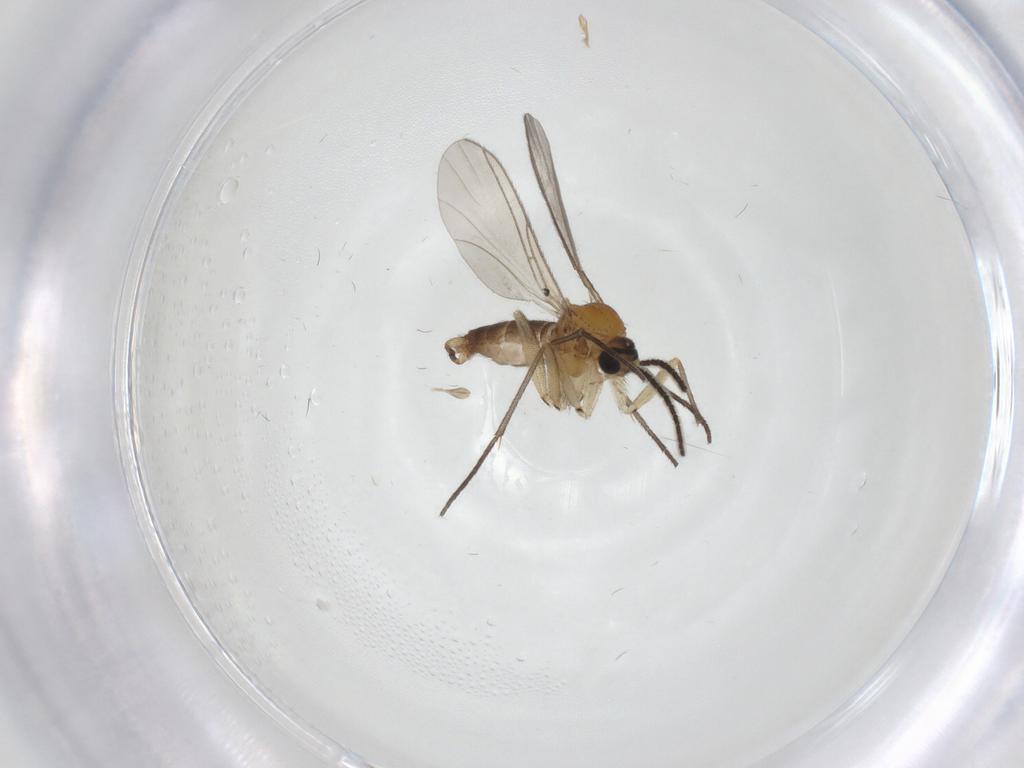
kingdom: Animalia
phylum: Arthropoda
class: Insecta
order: Diptera
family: Sciaridae
